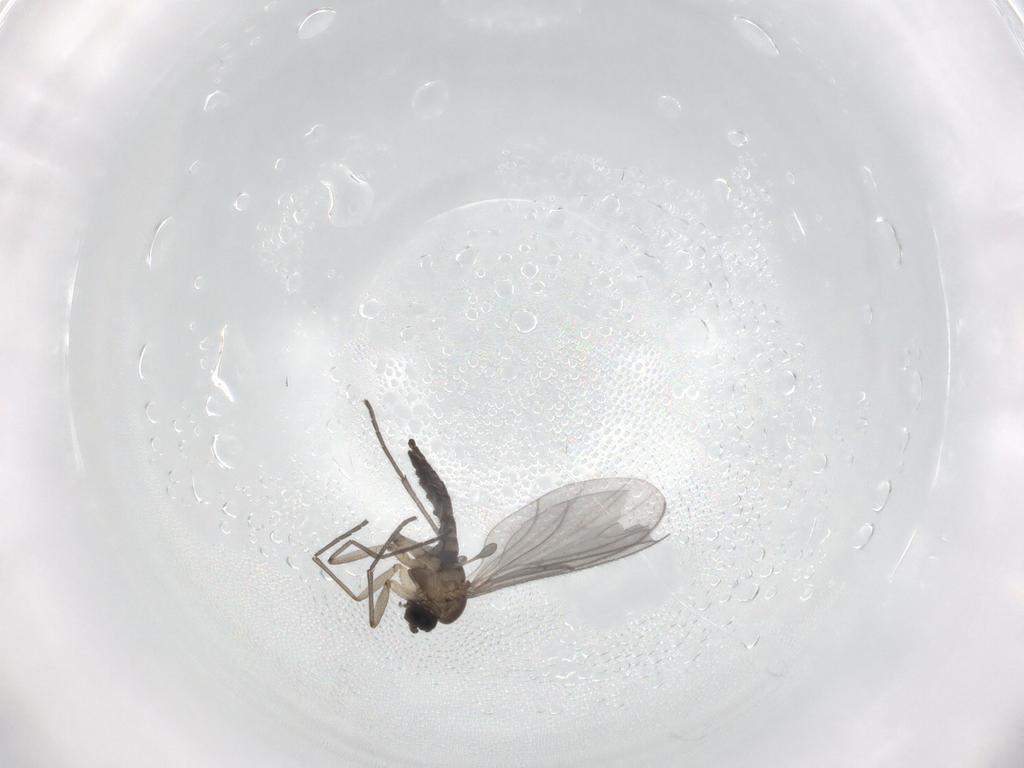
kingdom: Animalia
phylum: Arthropoda
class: Insecta
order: Diptera
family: Sciaridae
